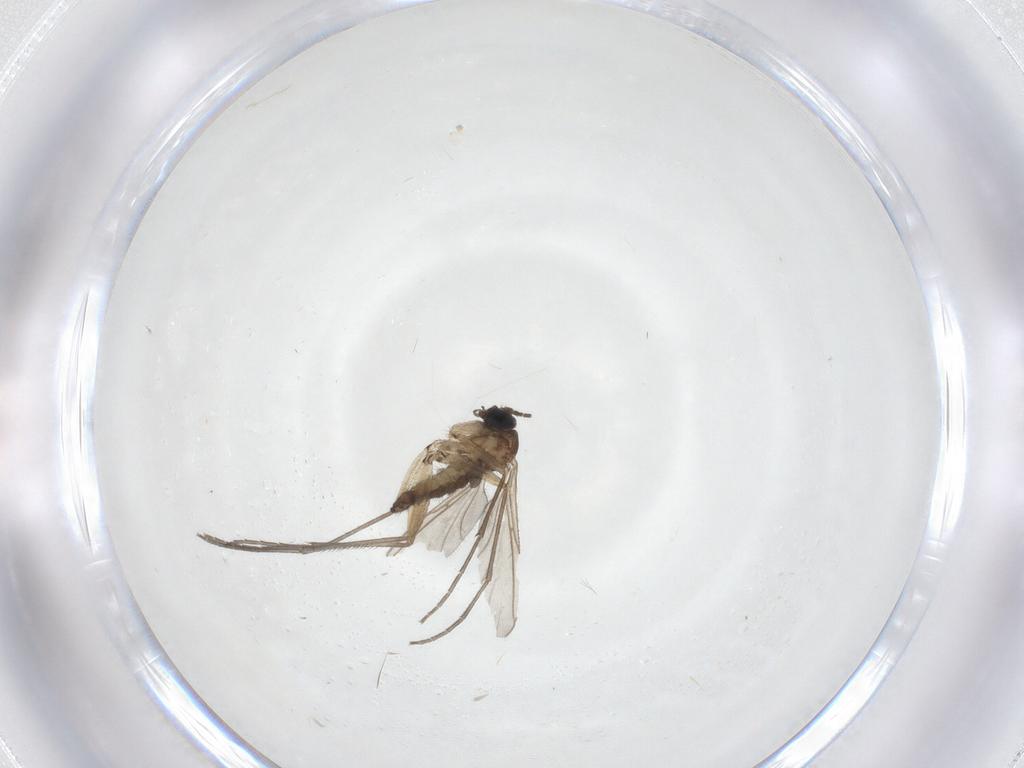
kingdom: Animalia
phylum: Arthropoda
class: Insecta
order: Diptera
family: Sciaridae
